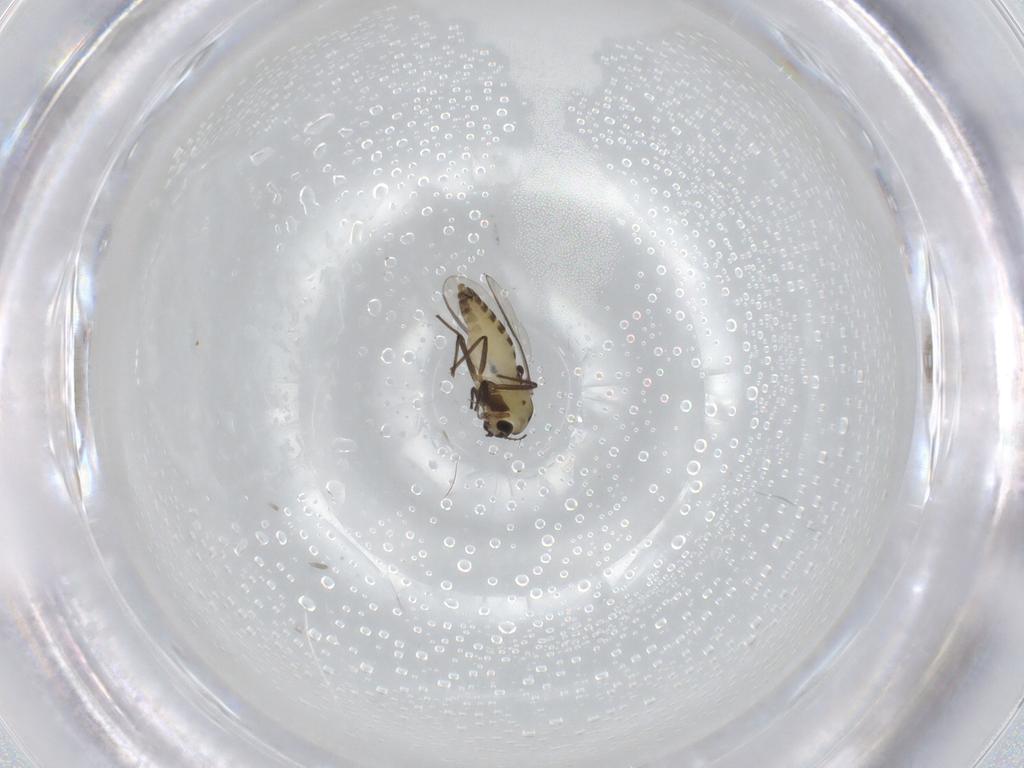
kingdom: Animalia
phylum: Arthropoda
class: Insecta
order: Diptera
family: Chironomidae
